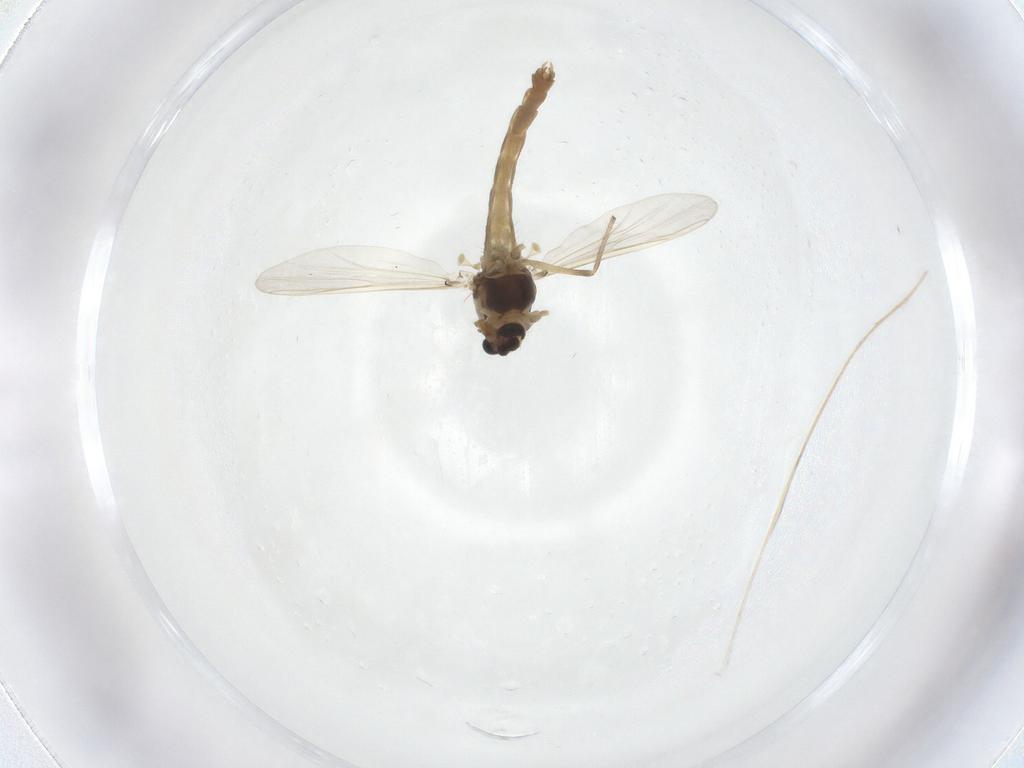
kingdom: Animalia
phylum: Arthropoda
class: Insecta
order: Diptera
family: Chironomidae
